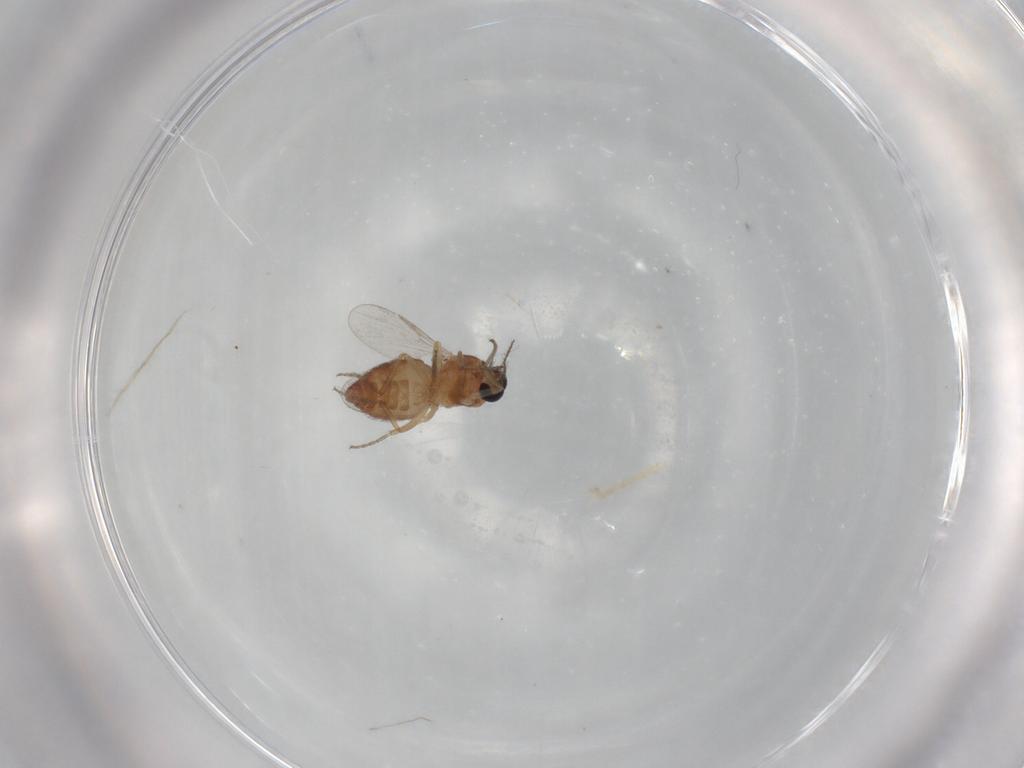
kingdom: Animalia
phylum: Arthropoda
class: Insecta
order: Diptera
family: Ceratopogonidae
